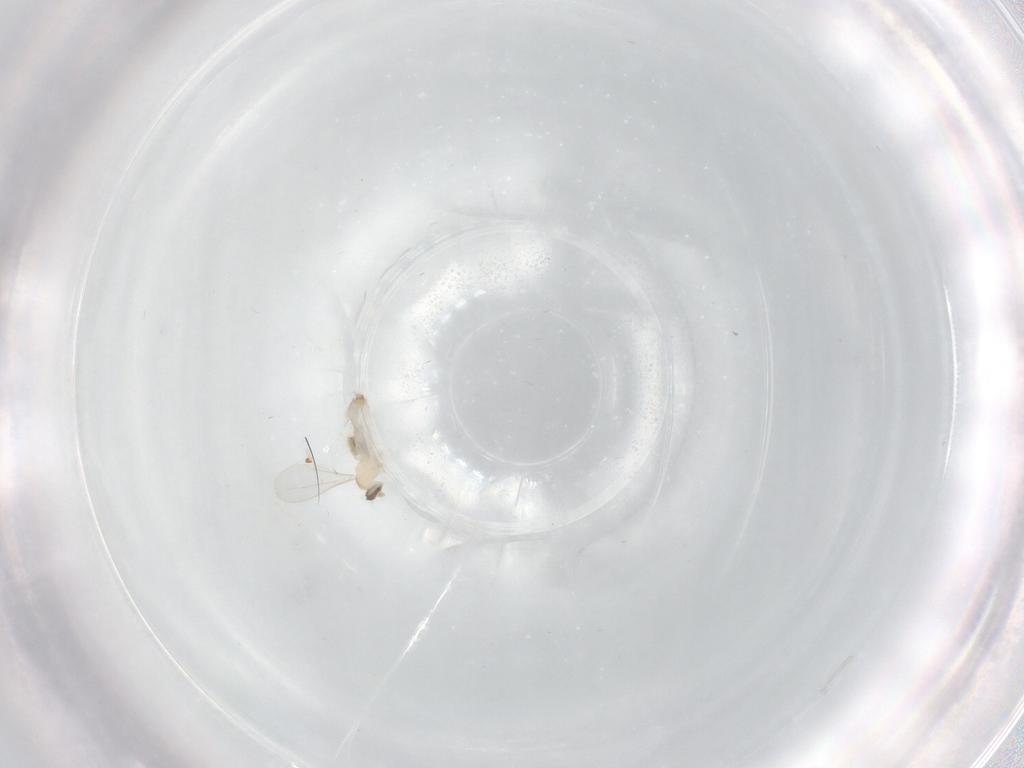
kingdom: Animalia
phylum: Arthropoda
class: Insecta
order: Diptera
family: Cecidomyiidae
